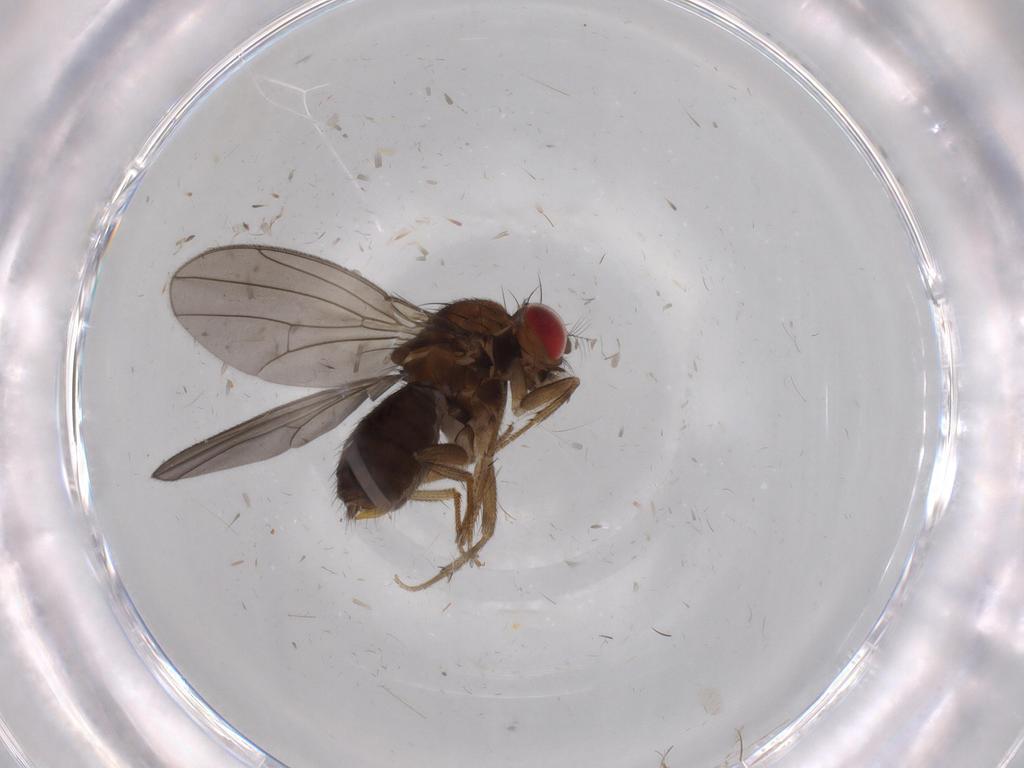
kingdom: Animalia
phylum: Arthropoda
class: Insecta
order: Diptera
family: Drosophilidae
